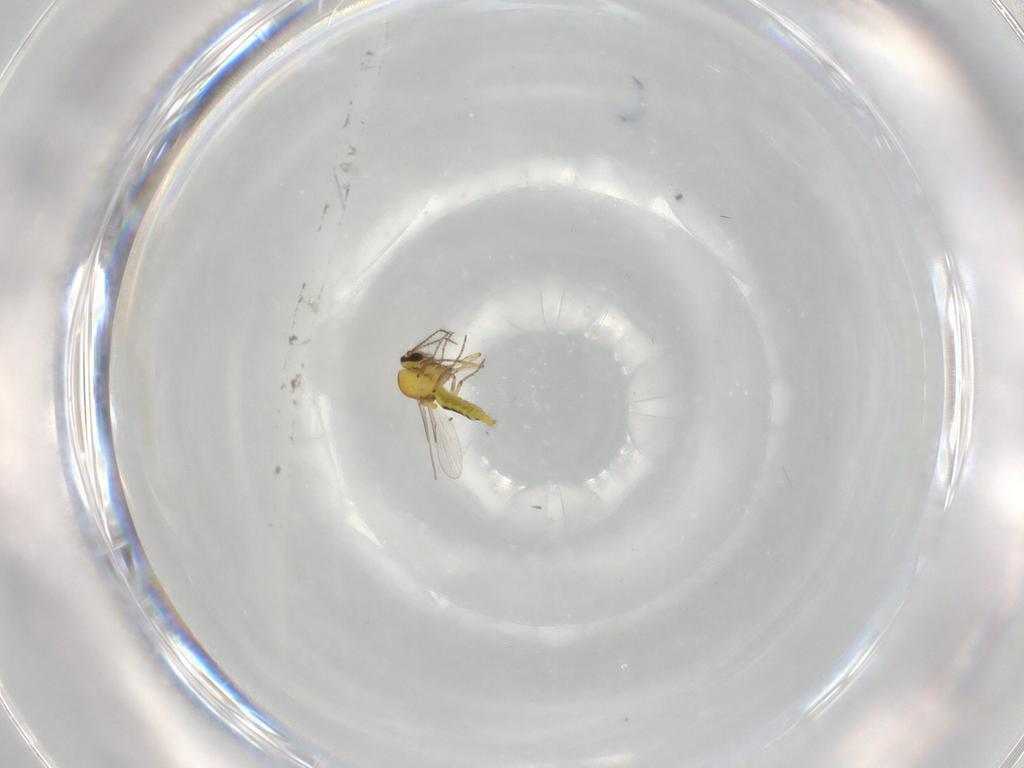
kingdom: Animalia
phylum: Arthropoda
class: Insecta
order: Diptera
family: Ceratopogonidae
